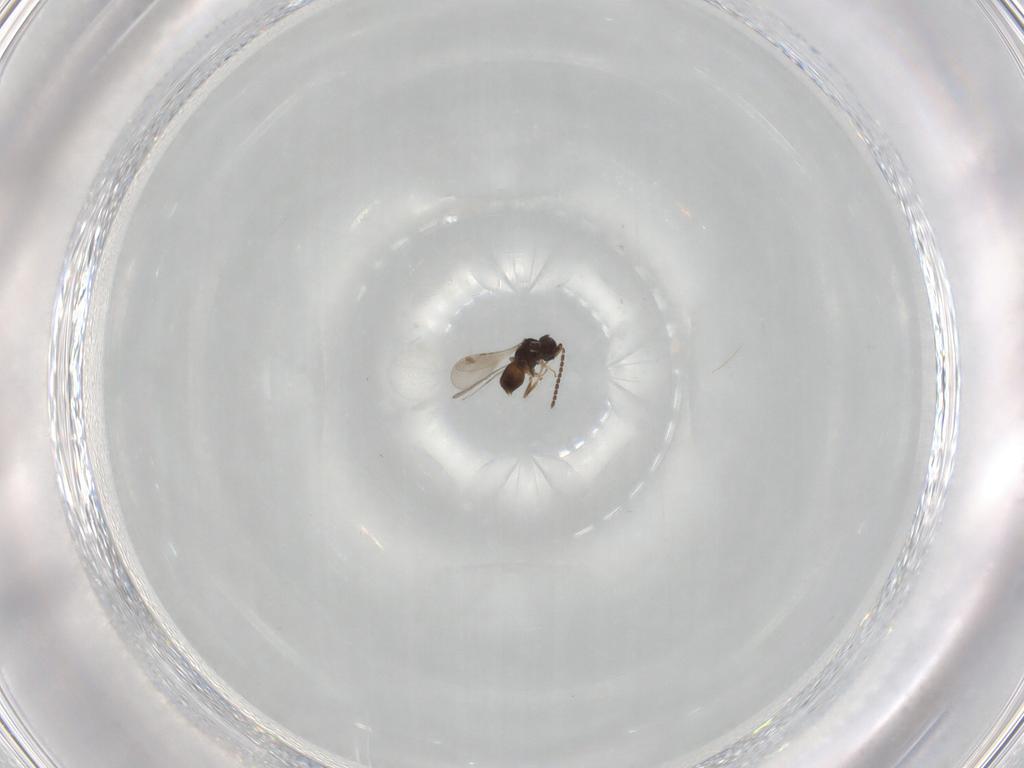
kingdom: Animalia
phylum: Arthropoda
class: Insecta
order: Hymenoptera
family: Ceraphronidae
